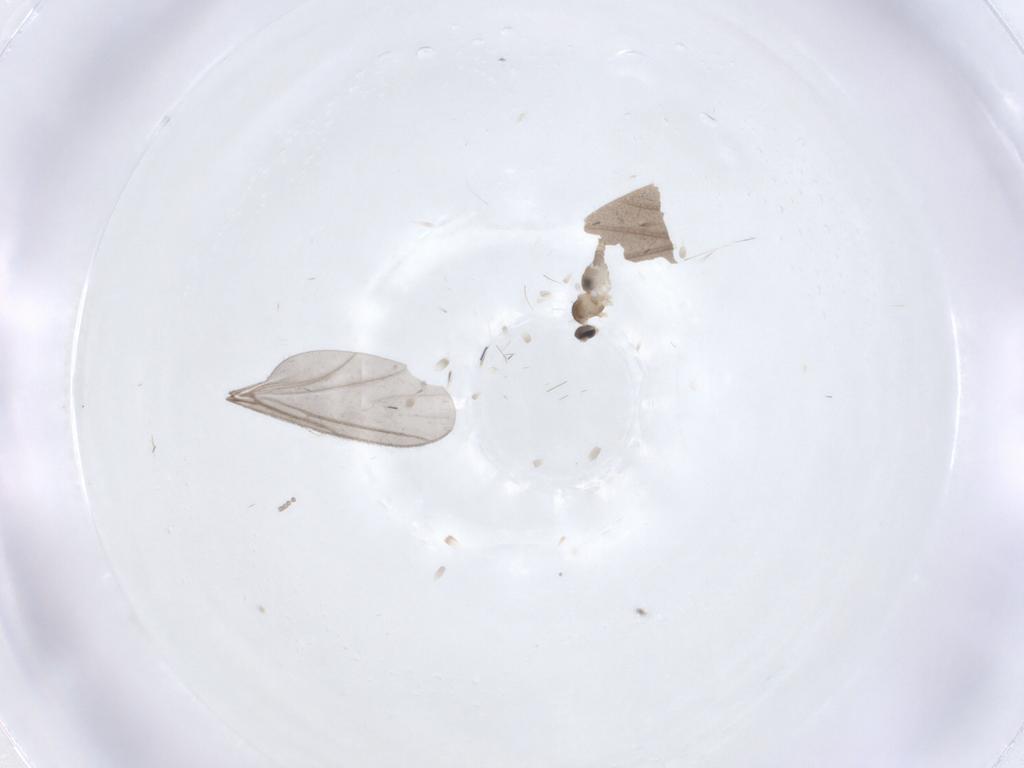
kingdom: Animalia
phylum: Arthropoda
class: Insecta
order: Diptera
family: Cecidomyiidae
